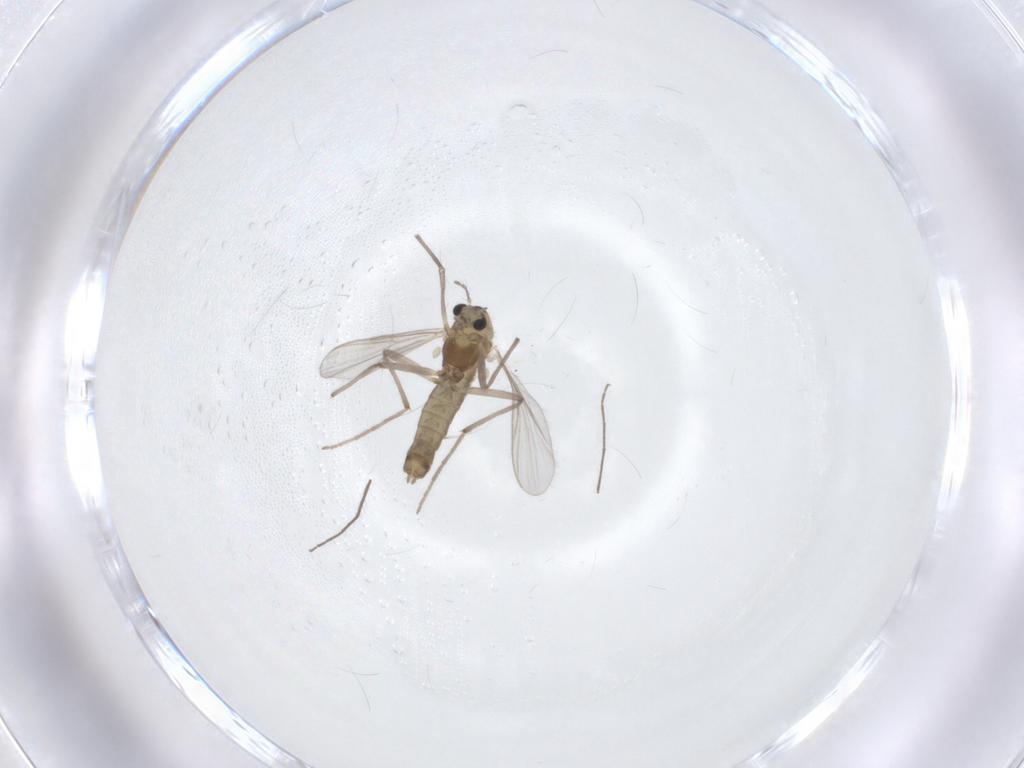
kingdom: Animalia
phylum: Arthropoda
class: Insecta
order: Diptera
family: Chironomidae
